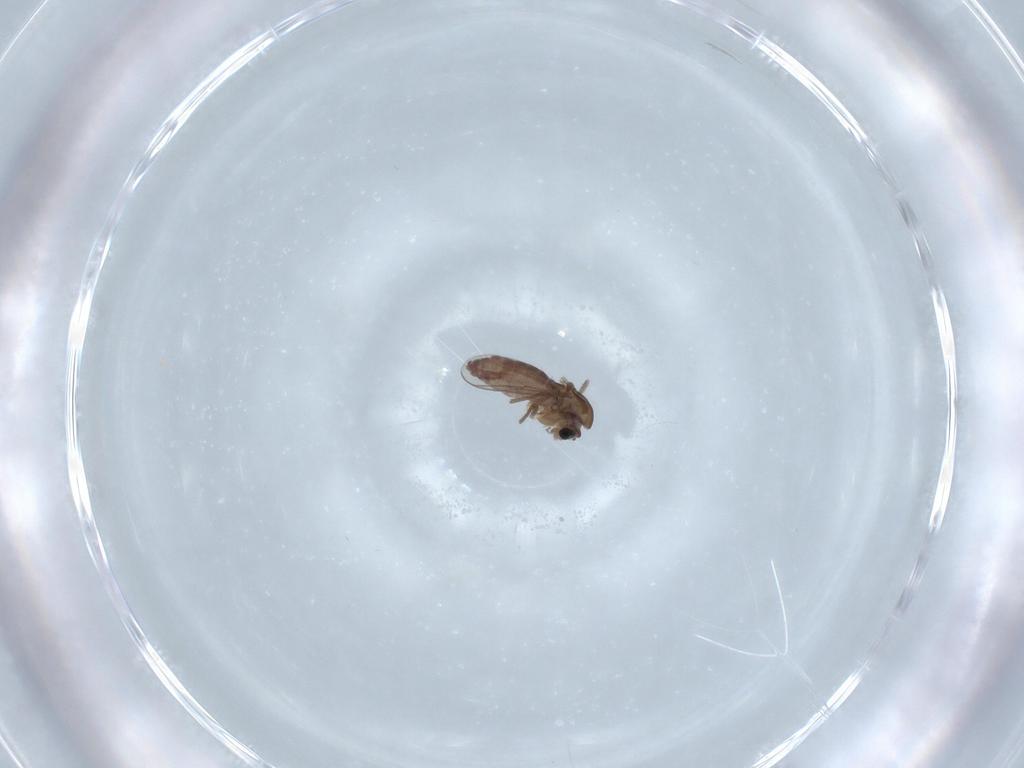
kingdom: Animalia
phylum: Arthropoda
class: Insecta
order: Diptera
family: Chironomidae
